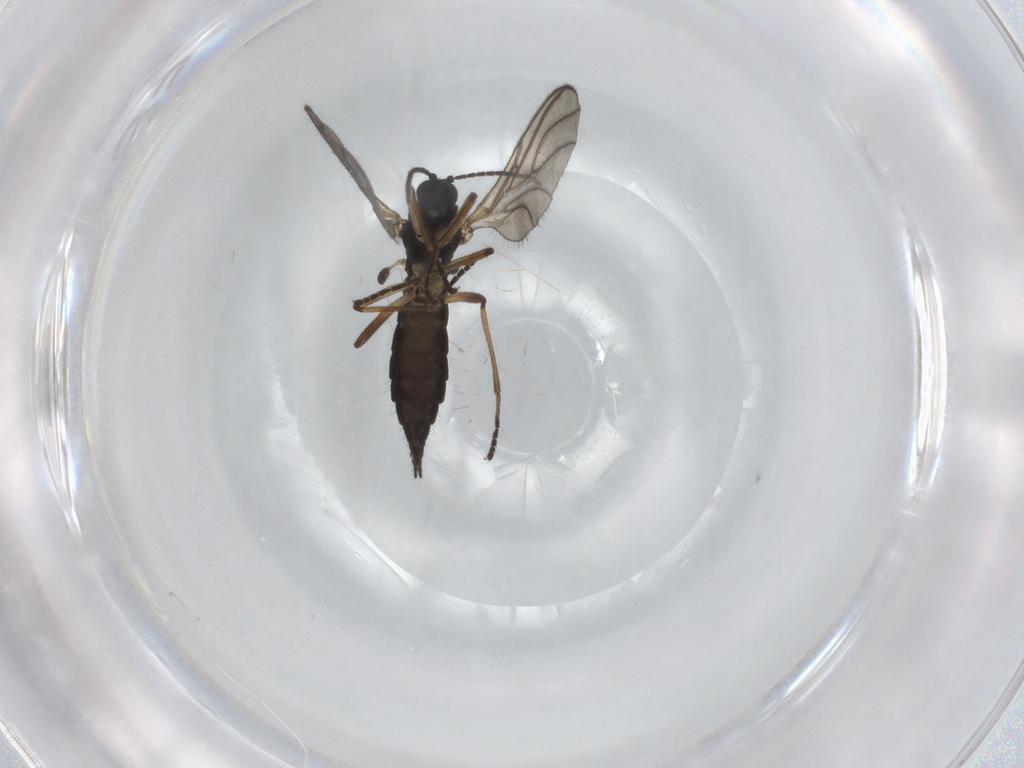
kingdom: Animalia
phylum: Arthropoda
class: Insecta
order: Diptera
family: Sciaridae
